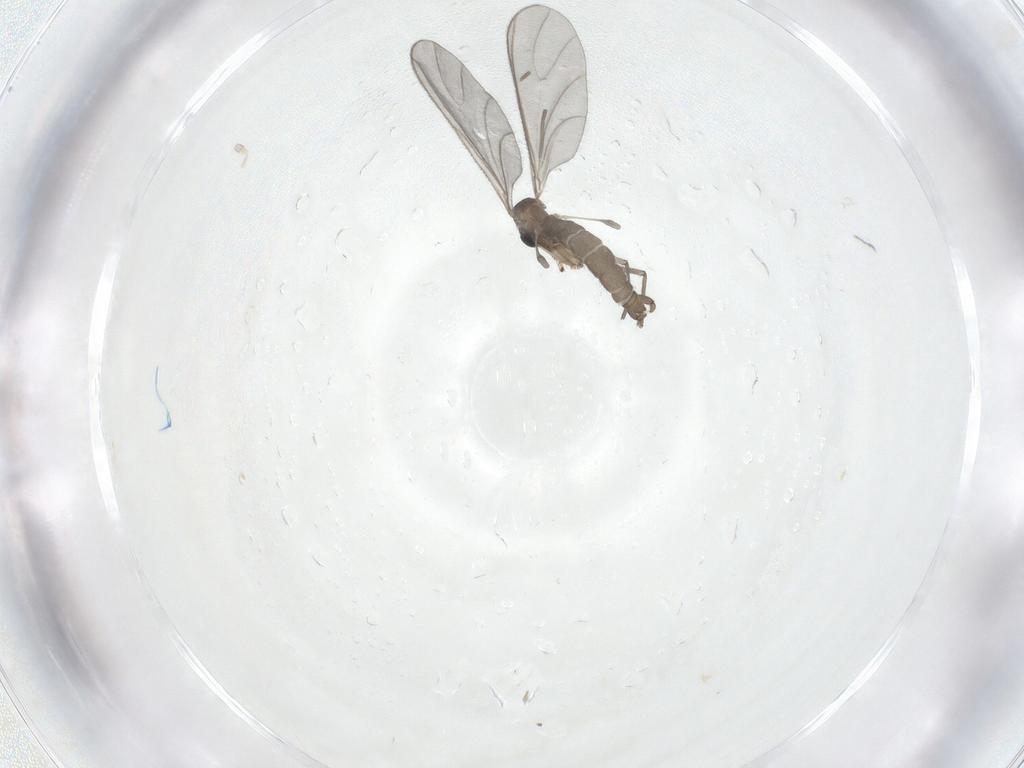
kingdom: Animalia
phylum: Arthropoda
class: Insecta
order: Diptera
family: Sciaridae
